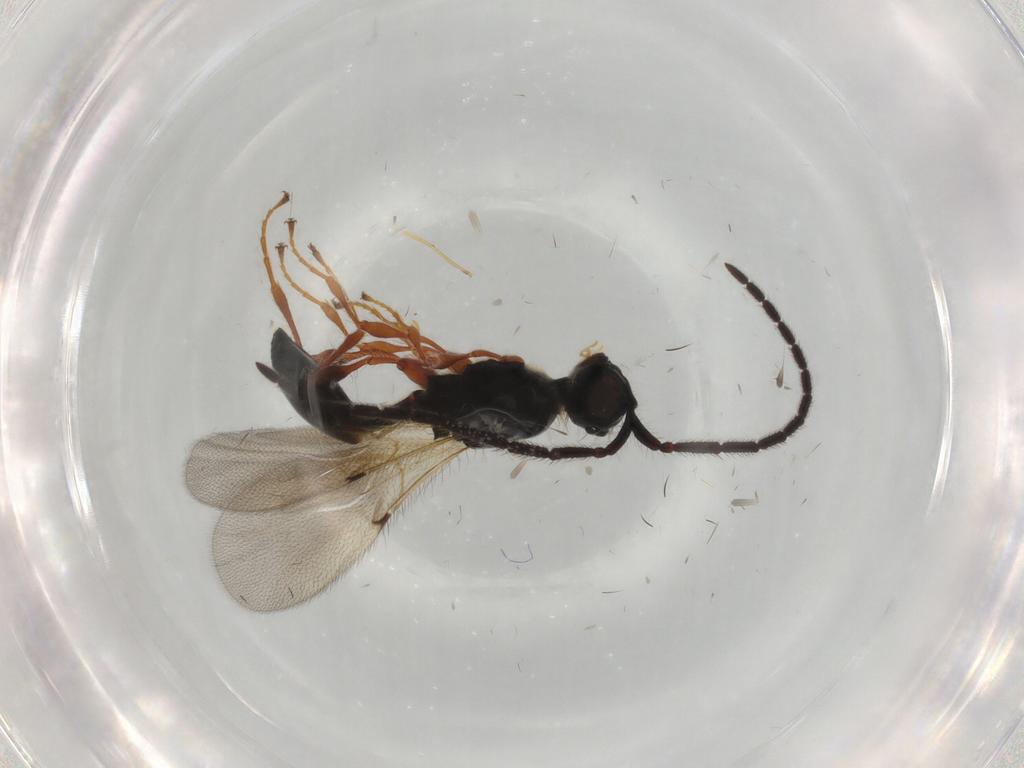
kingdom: Animalia
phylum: Arthropoda
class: Insecta
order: Hymenoptera
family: Diapriidae
